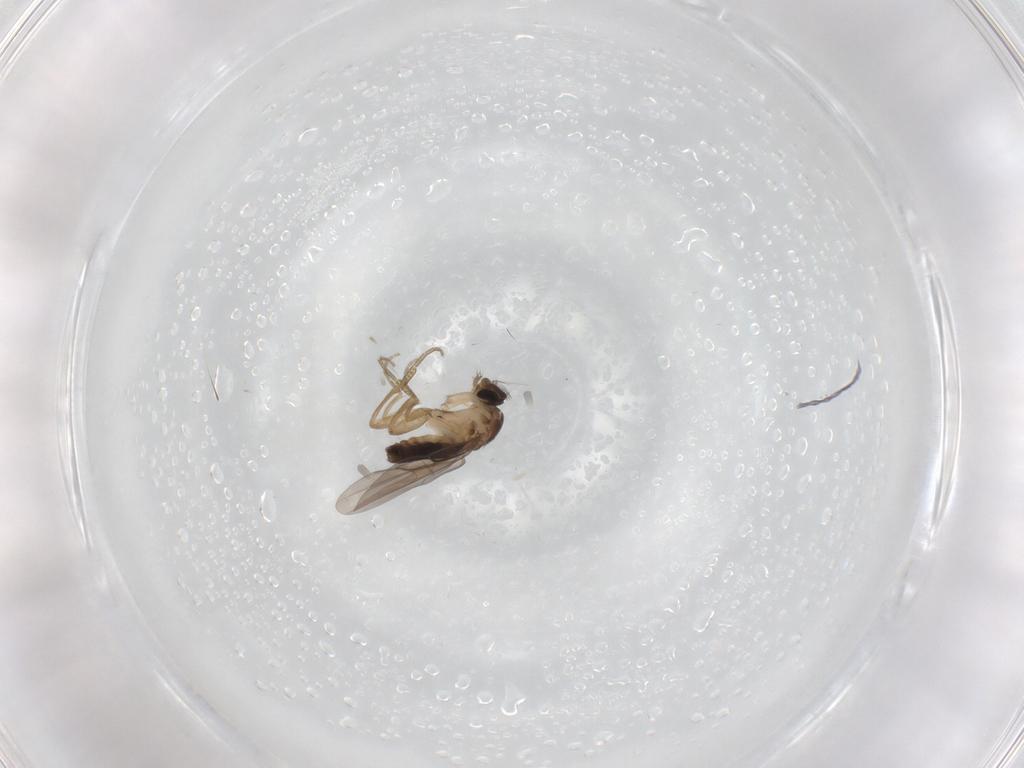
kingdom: Animalia
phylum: Arthropoda
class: Insecta
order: Diptera
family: Phoridae
